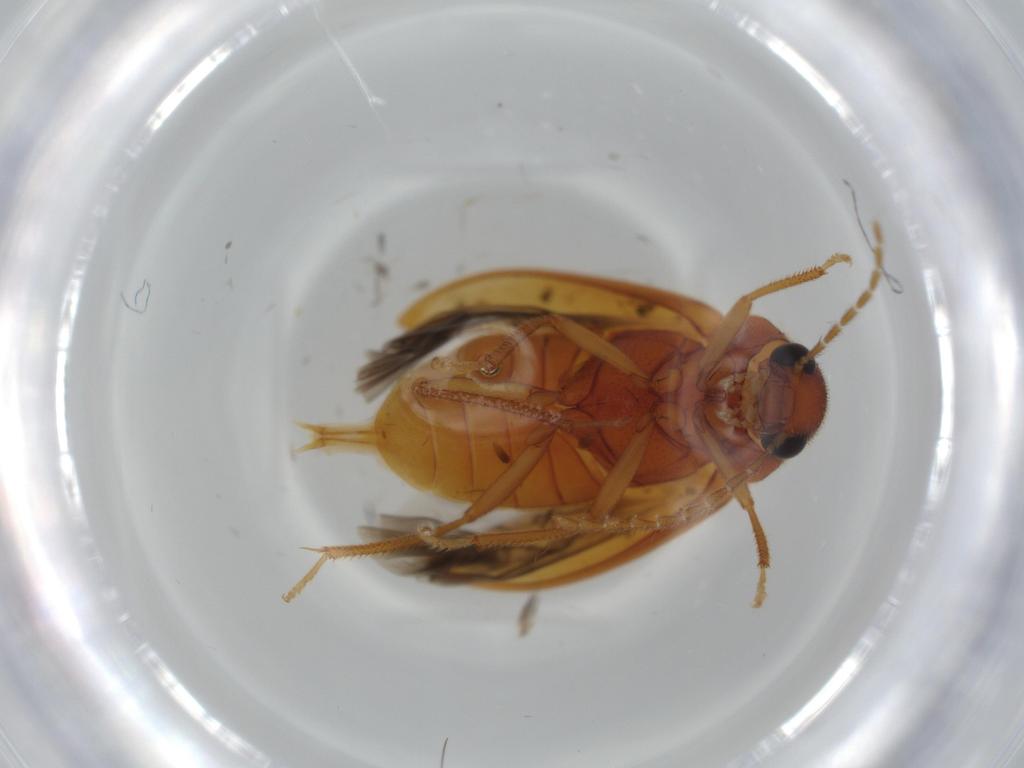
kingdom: Animalia
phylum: Arthropoda
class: Insecta
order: Coleoptera
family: Ptilodactylidae
